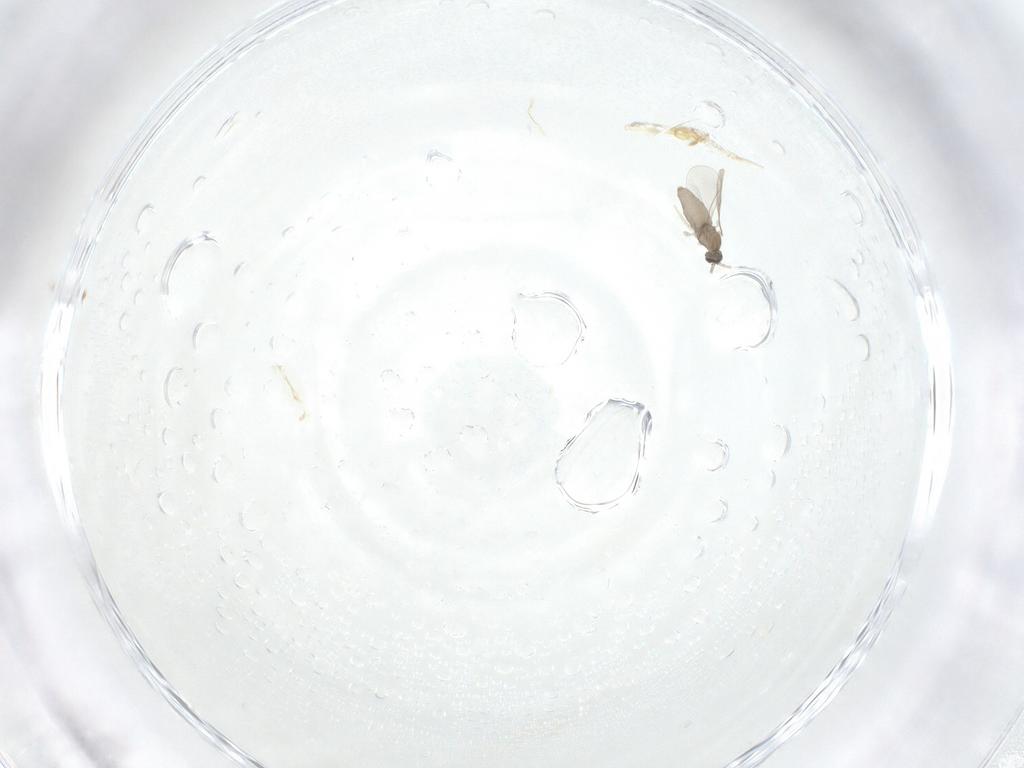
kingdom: Animalia
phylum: Arthropoda
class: Insecta
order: Diptera
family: Cecidomyiidae
